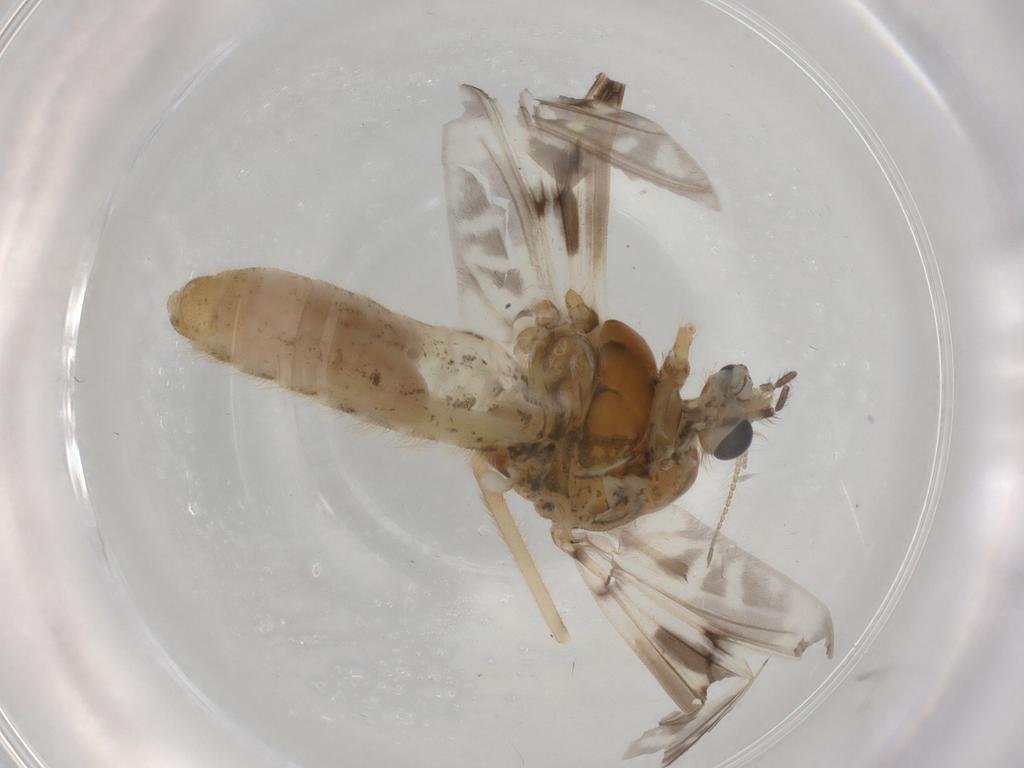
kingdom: Animalia
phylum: Arthropoda
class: Insecta
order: Diptera
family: Chironomidae
